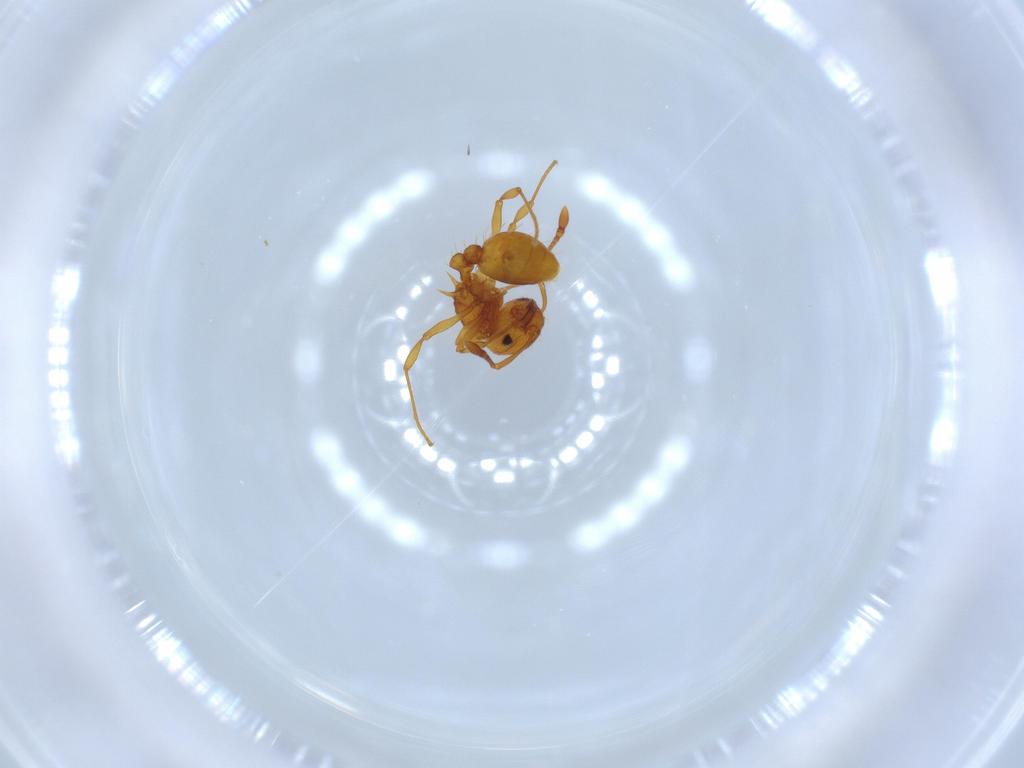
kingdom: Animalia
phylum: Arthropoda
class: Insecta
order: Hymenoptera
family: Formicidae
